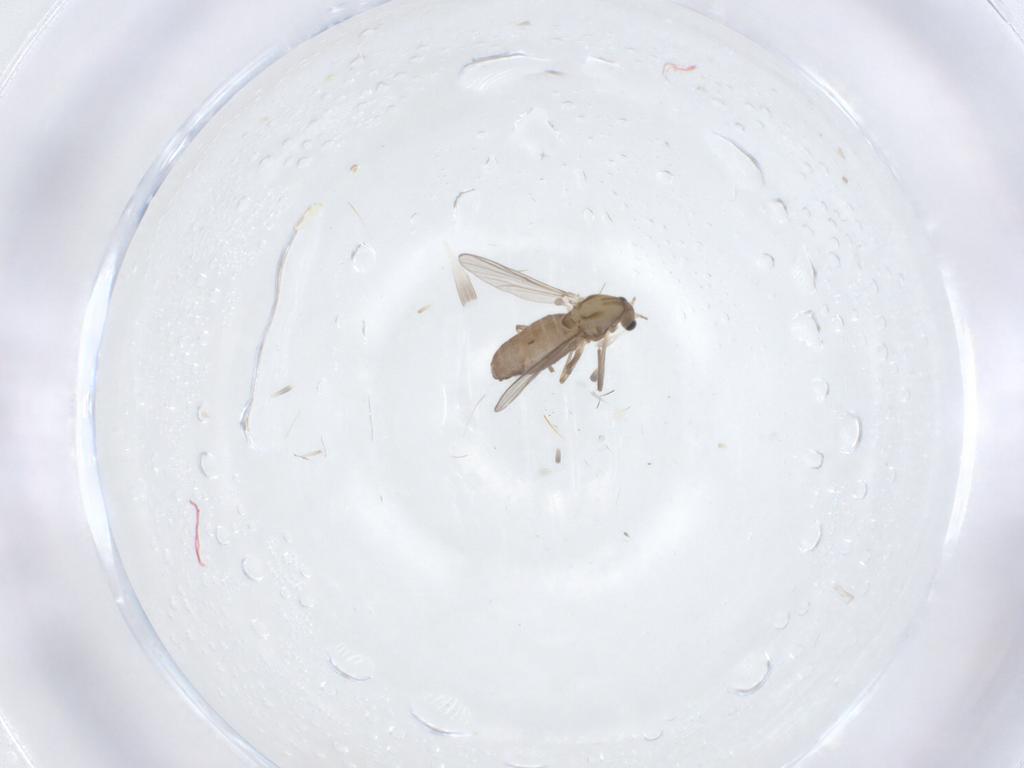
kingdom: Animalia
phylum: Arthropoda
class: Insecta
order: Diptera
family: Chironomidae
